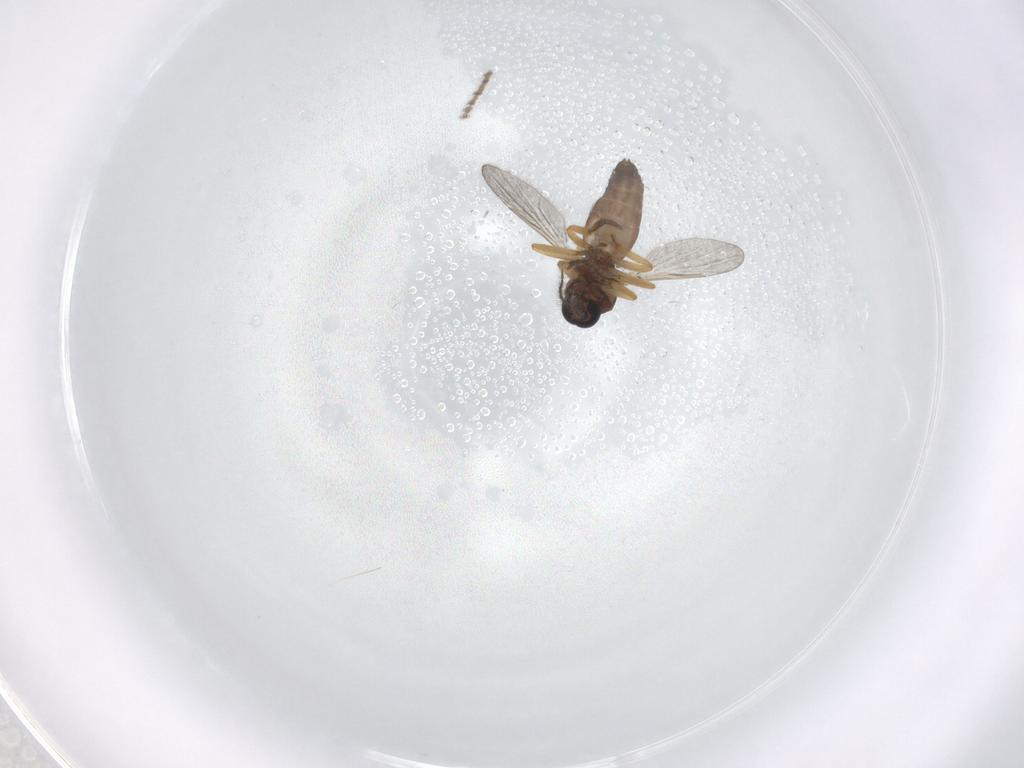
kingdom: Animalia
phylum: Arthropoda
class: Insecta
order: Diptera
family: Ceratopogonidae
